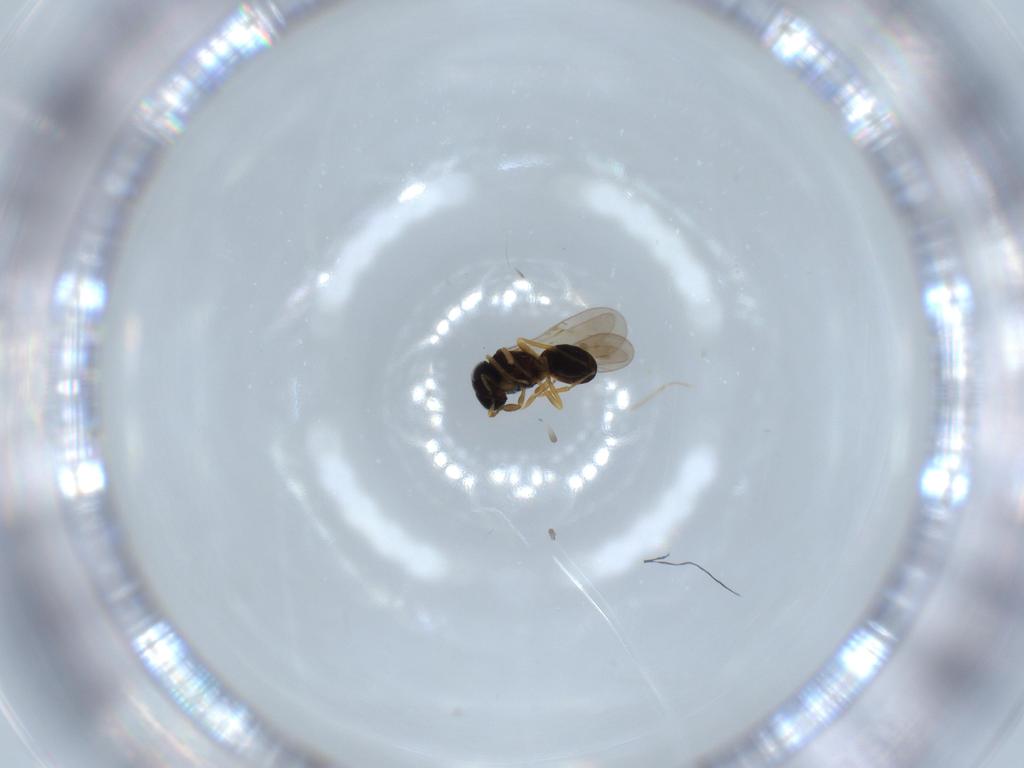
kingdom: Animalia
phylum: Arthropoda
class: Insecta
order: Hymenoptera
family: Scelionidae
